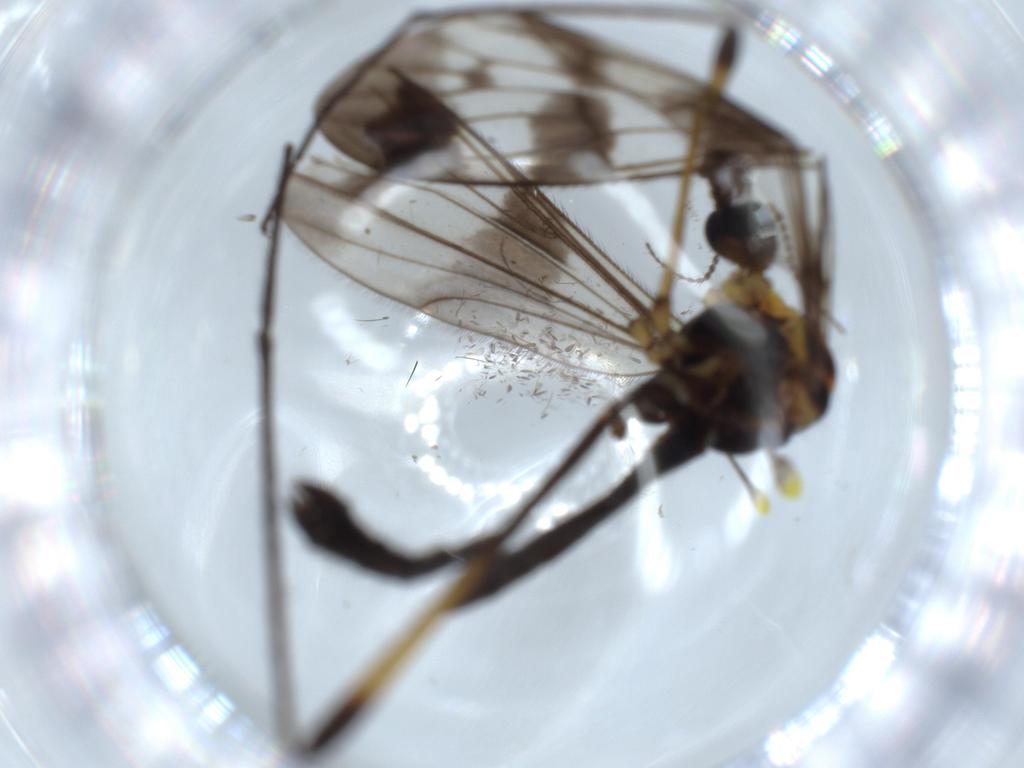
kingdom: Animalia
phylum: Arthropoda
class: Insecta
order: Diptera
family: Limoniidae
